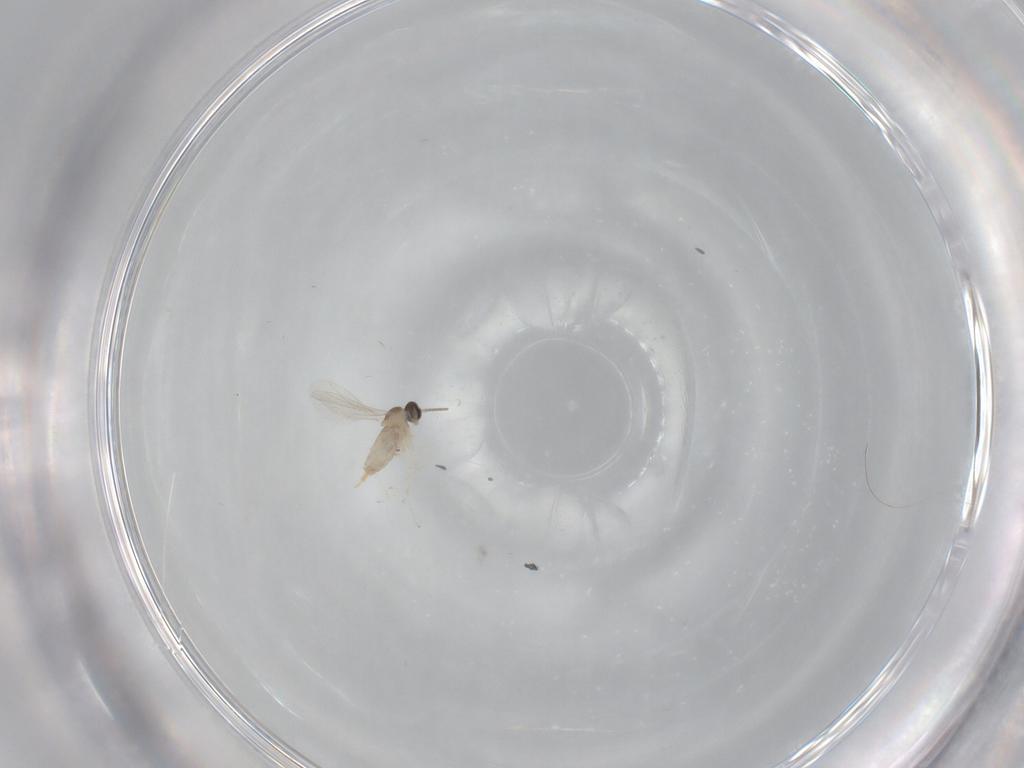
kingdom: Animalia
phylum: Arthropoda
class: Insecta
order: Diptera
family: Cecidomyiidae
